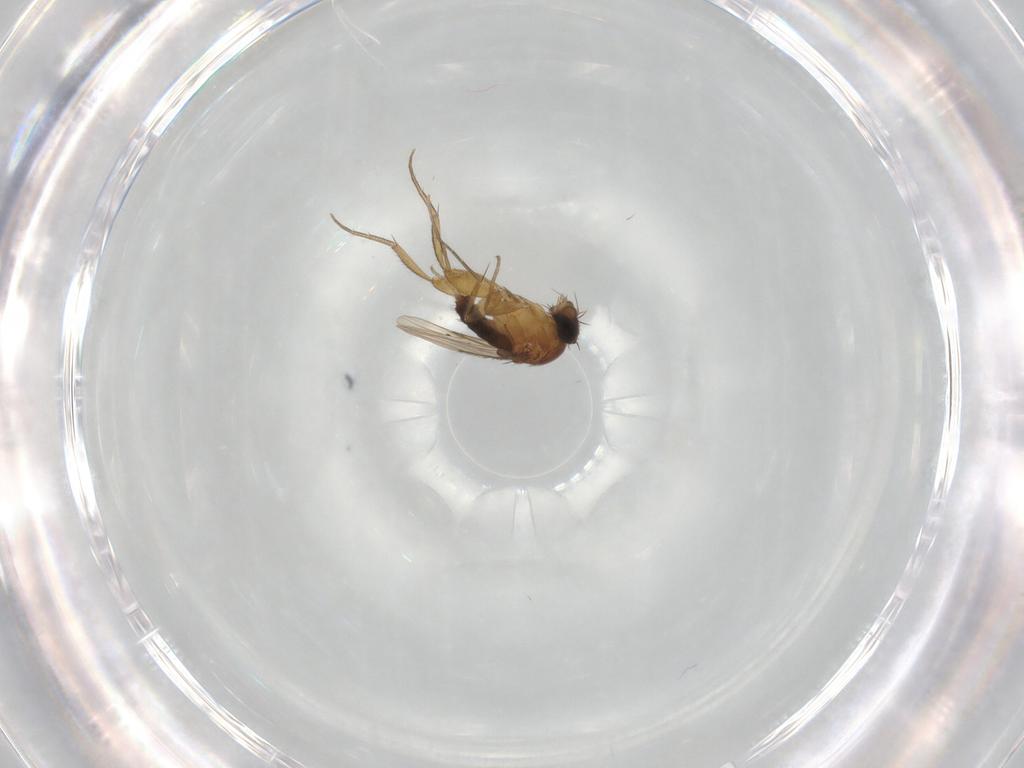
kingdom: Animalia
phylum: Arthropoda
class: Insecta
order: Diptera
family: Phoridae
